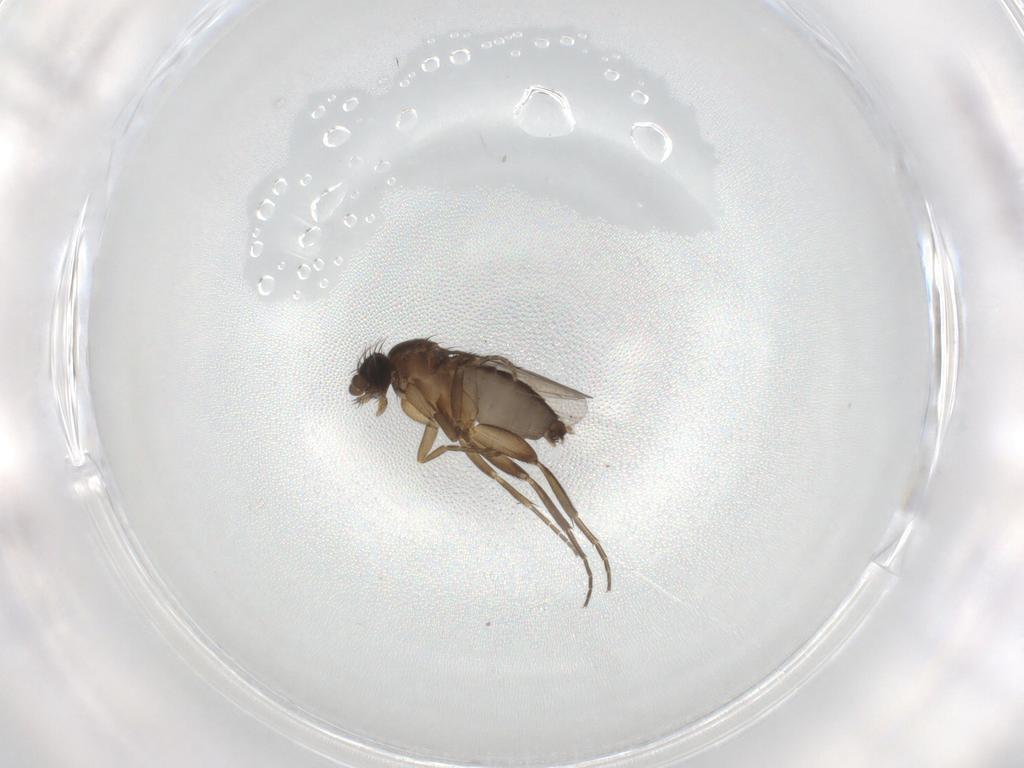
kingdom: Animalia
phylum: Arthropoda
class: Insecta
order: Diptera
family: Phoridae
